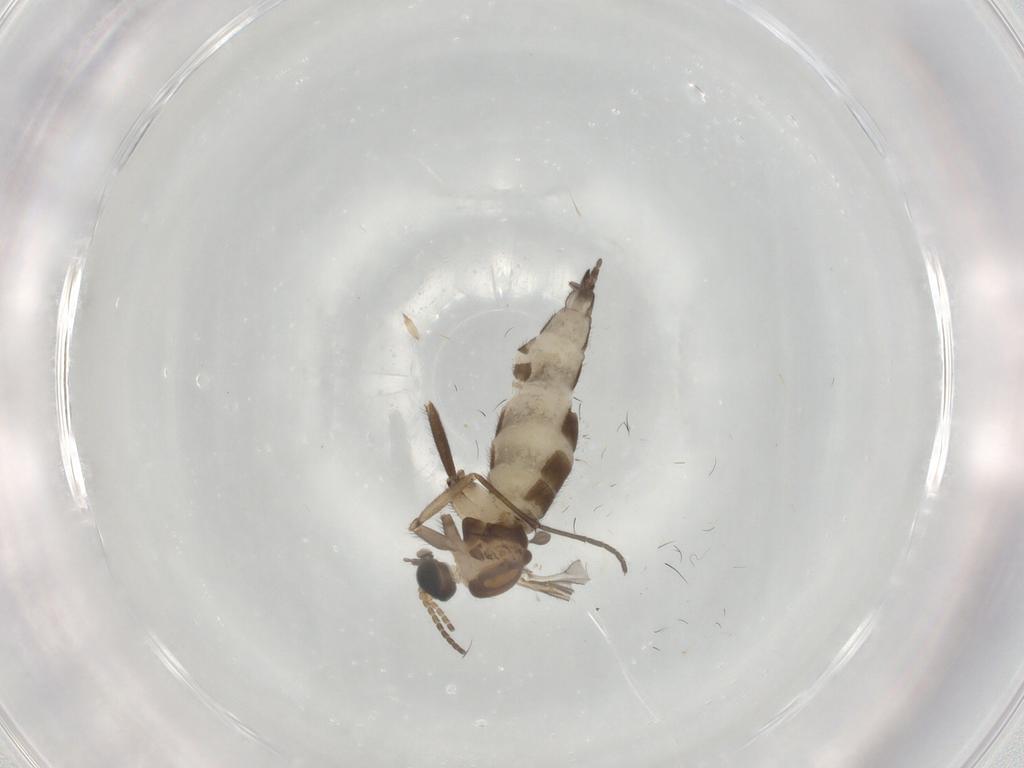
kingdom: Animalia
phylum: Arthropoda
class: Insecta
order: Diptera
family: Sciaridae
